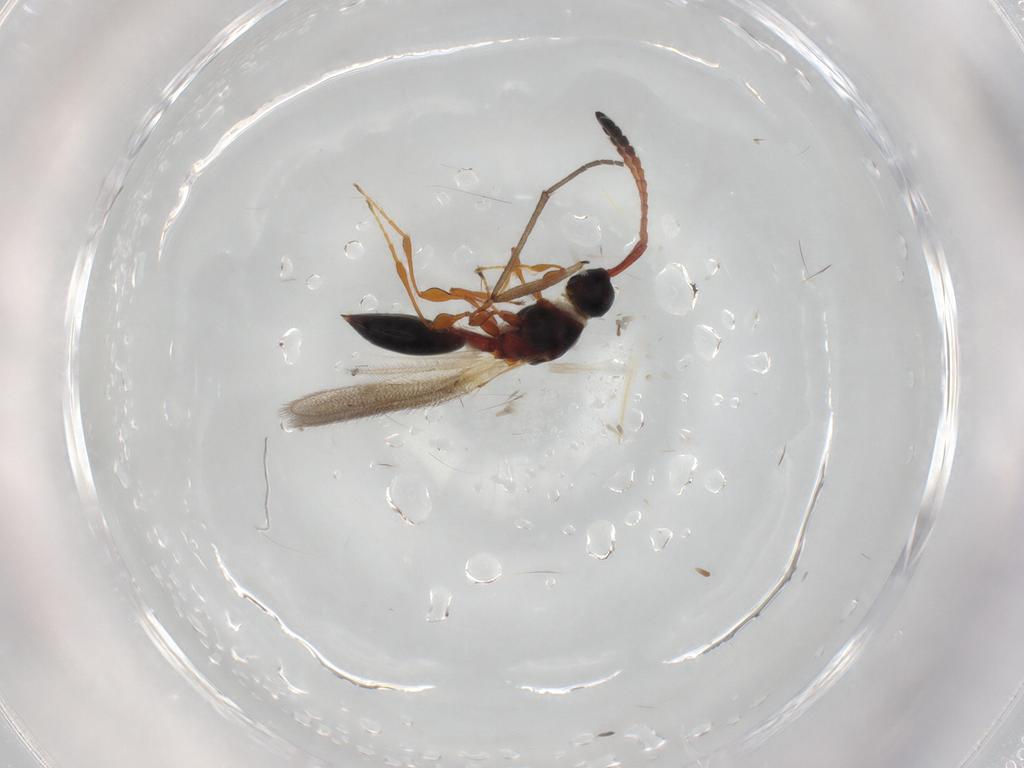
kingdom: Animalia
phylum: Arthropoda
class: Insecta
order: Hymenoptera
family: Diapriidae
